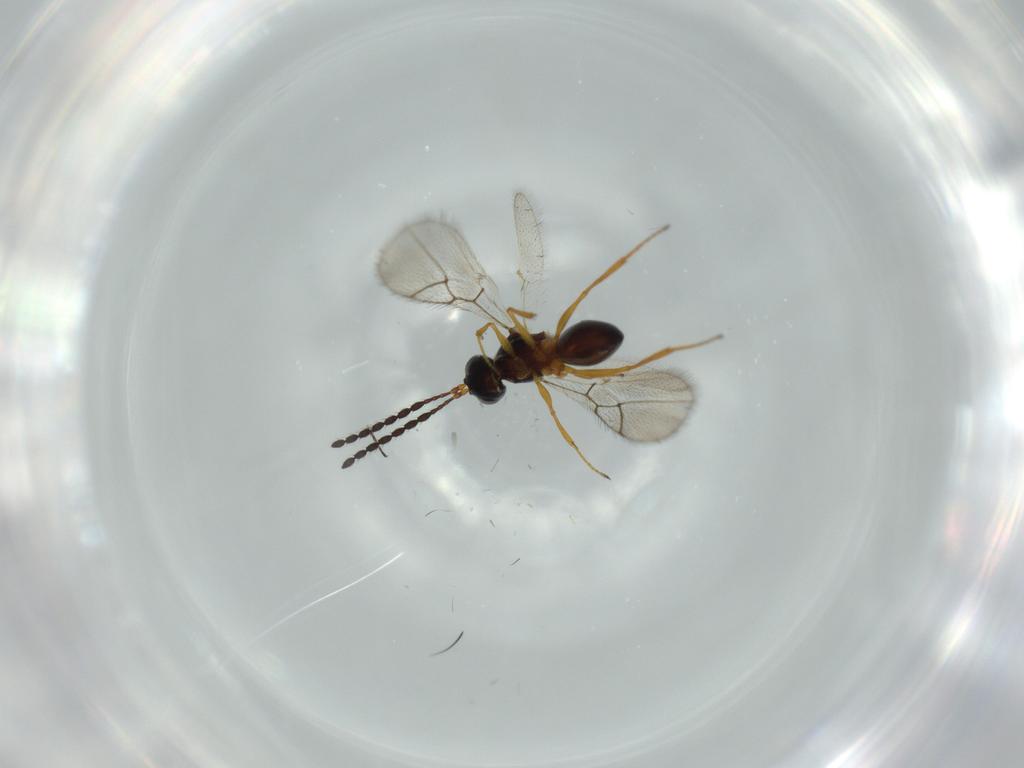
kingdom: Animalia
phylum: Arthropoda
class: Insecta
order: Hymenoptera
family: Figitidae
